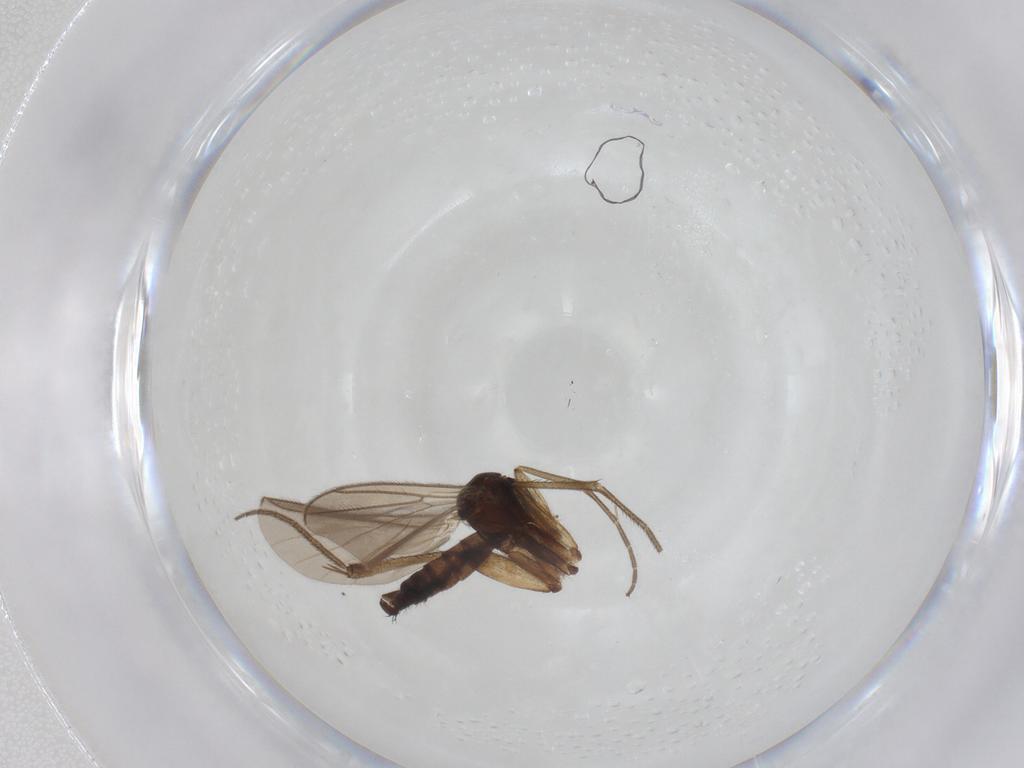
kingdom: Animalia
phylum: Arthropoda
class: Insecta
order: Diptera
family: Mycetophilidae
